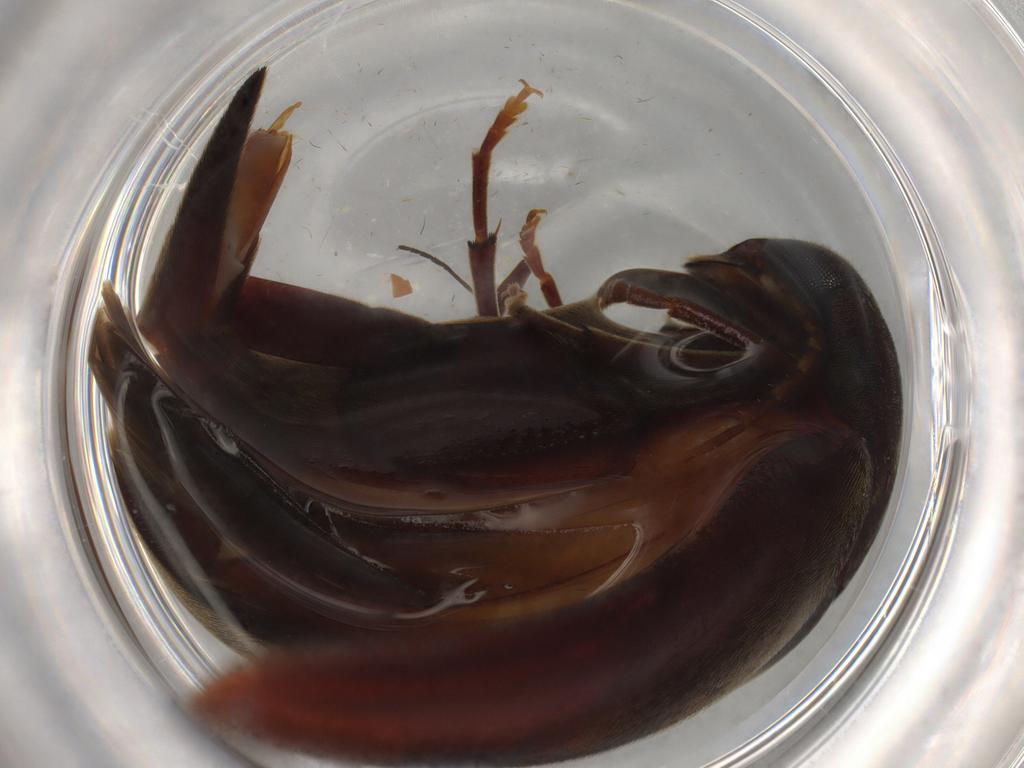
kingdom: Animalia
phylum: Arthropoda
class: Insecta
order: Coleoptera
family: Mordellidae
